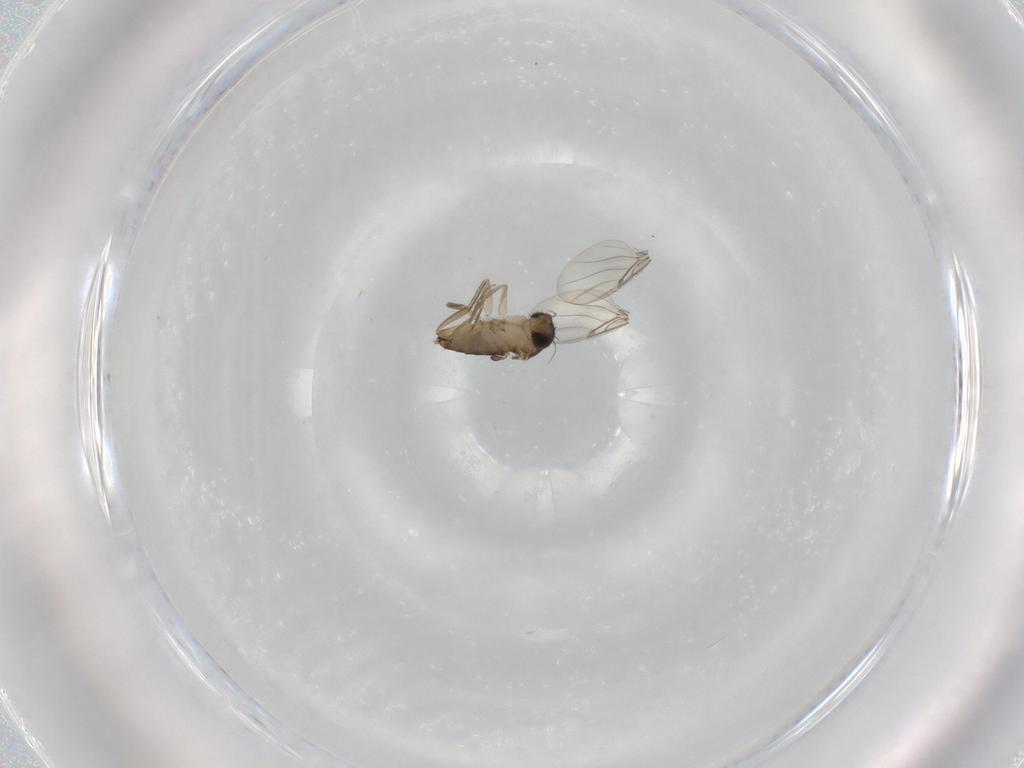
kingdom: Animalia
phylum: Arthropoda
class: Insecta
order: Diptera
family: Phoridae
